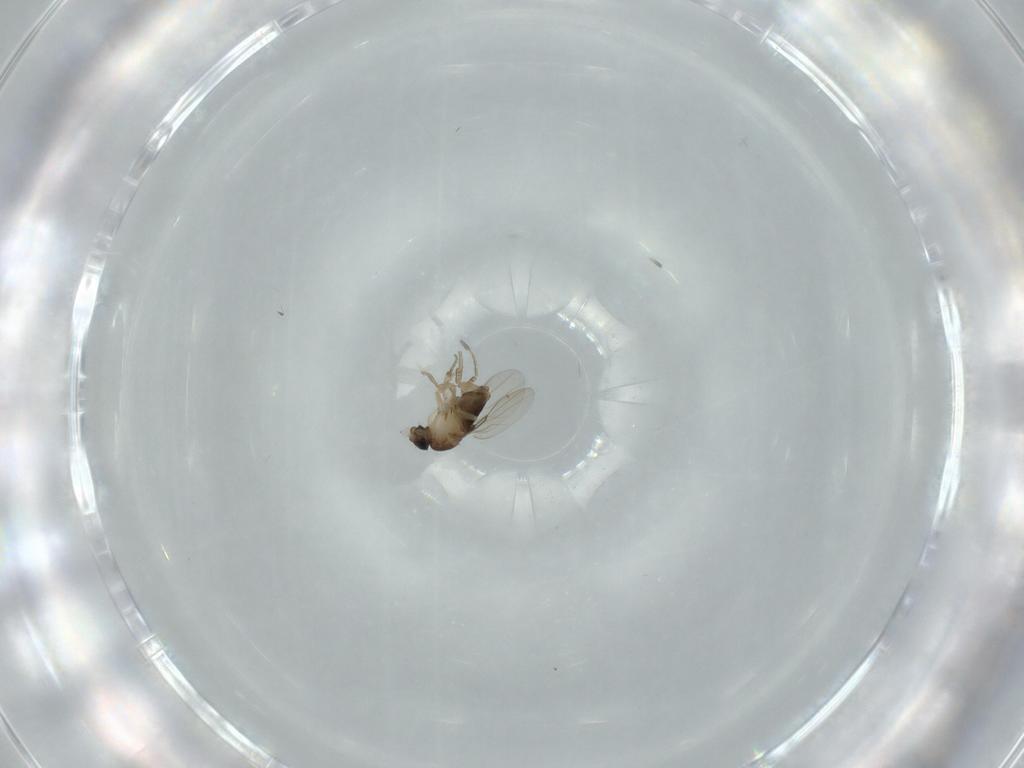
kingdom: Animalia
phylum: Arthropoda
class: Insecta
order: Diptera
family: Phoridae
